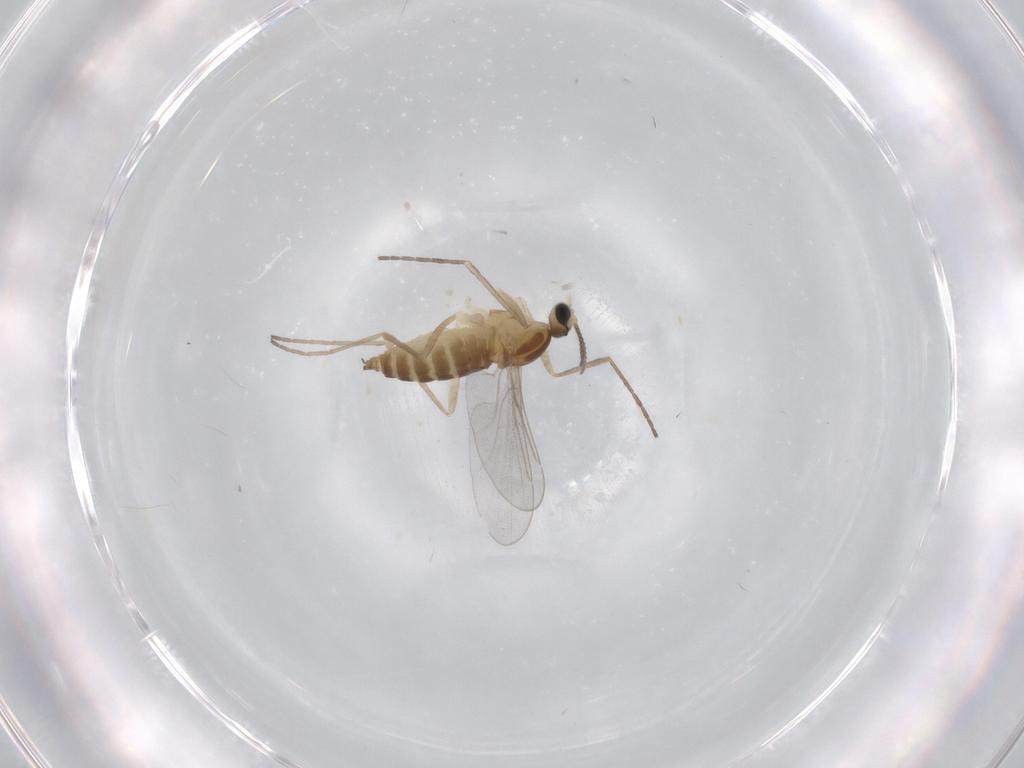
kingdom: Animalia
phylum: Arthropoda
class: Insecta
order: Diptera
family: Cecidomyiidae
